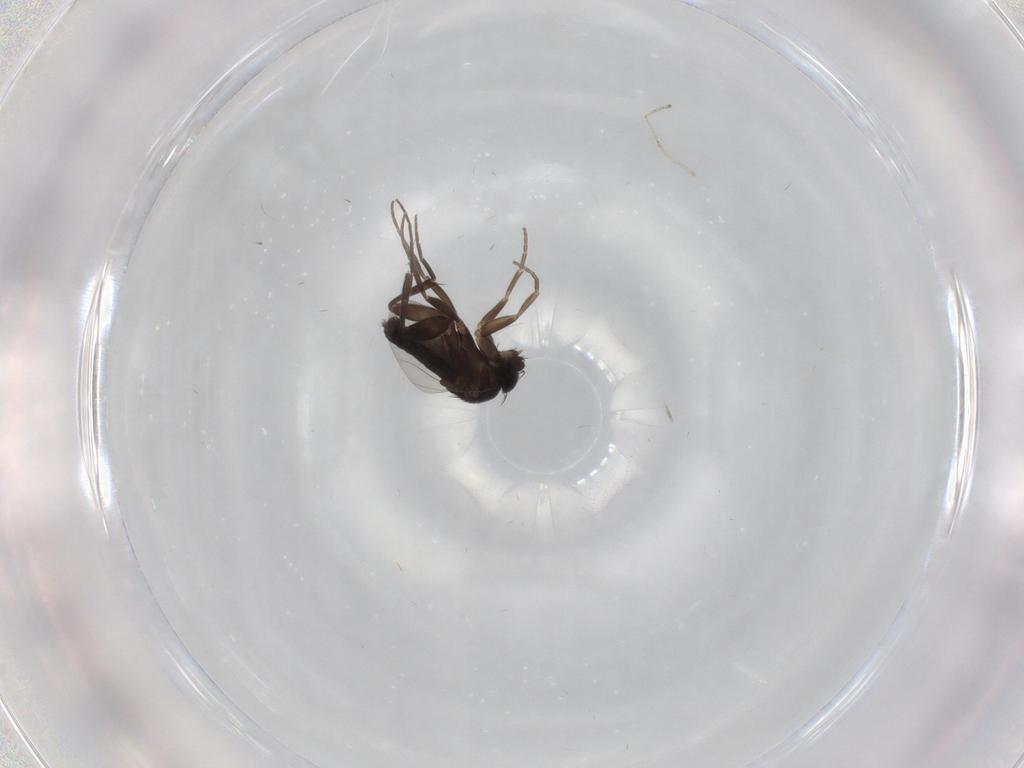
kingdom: Animalia
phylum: Arthropoda
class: Insecta
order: Diptera
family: Phoridae
